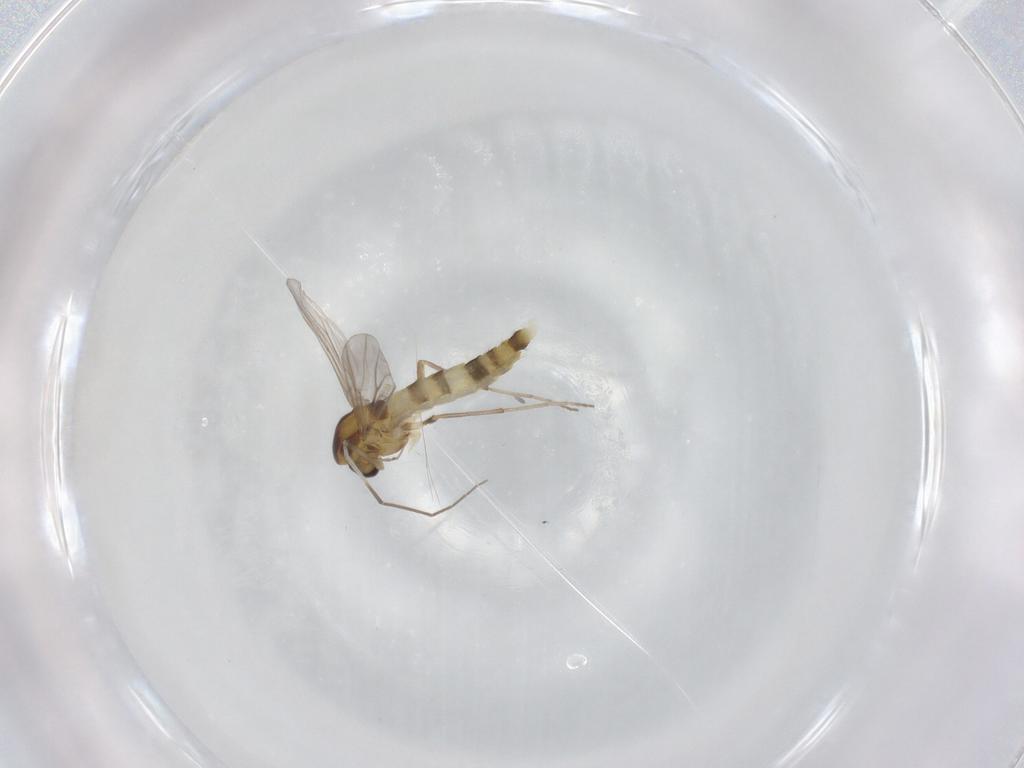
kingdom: Animalia
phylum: Arthropoda
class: Insecta
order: Diptera
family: Chironomidae
